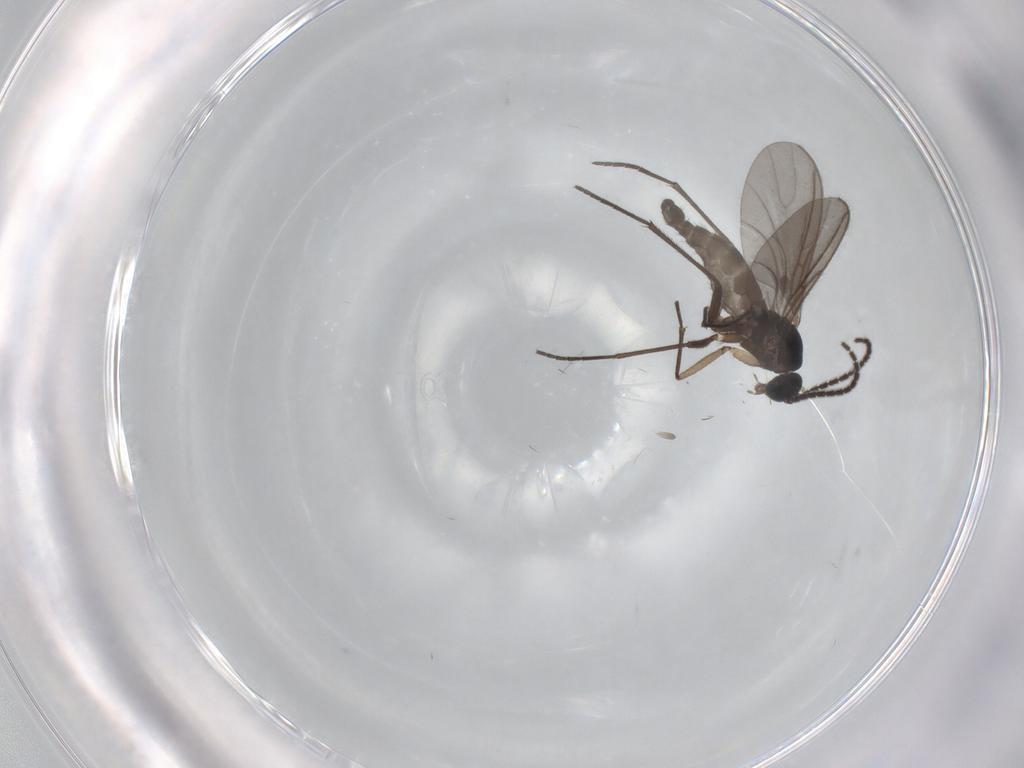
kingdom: Animalia
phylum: Arthropoda
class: Insecta
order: Diptera
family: Sciaridae
